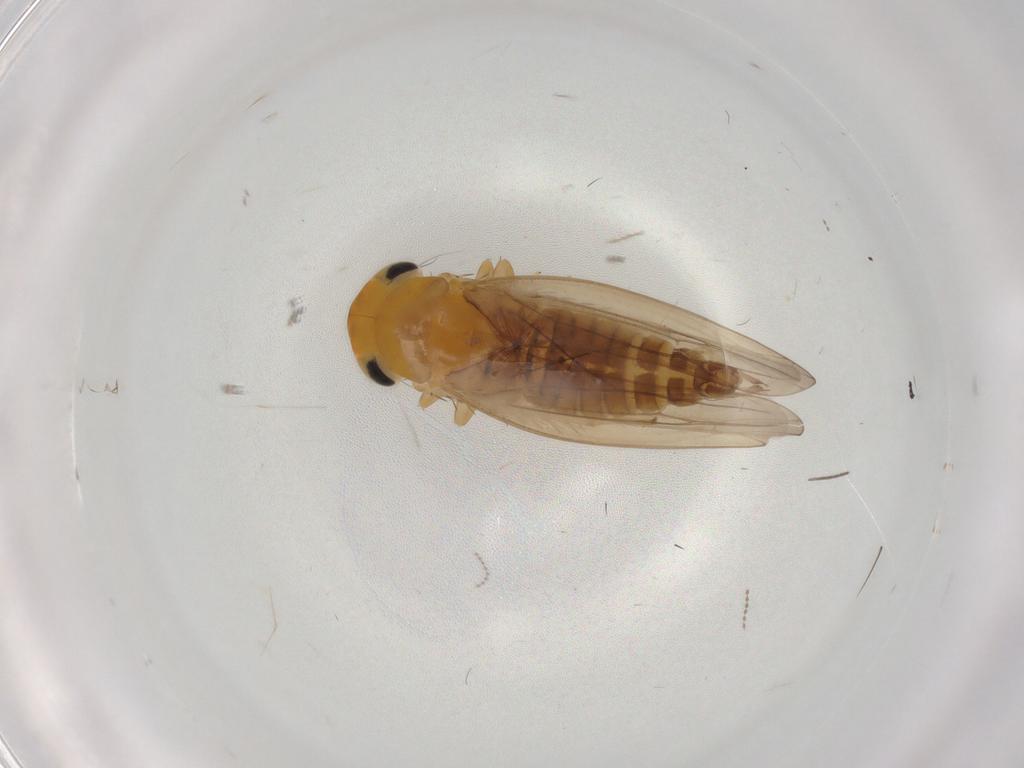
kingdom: Animalia
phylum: Arthropoda
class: Insecta
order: Hemiptera
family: Cicadellidae
